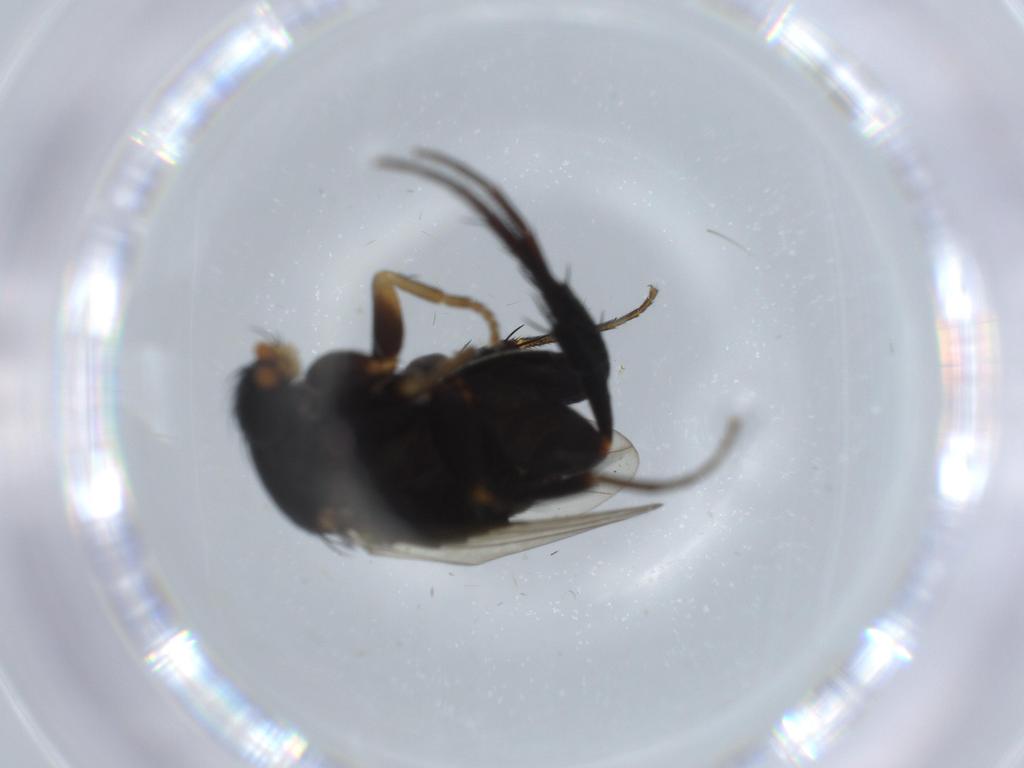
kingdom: Animalia
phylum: Arthropoda
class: Insecta
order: Diptera
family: Phoridae
